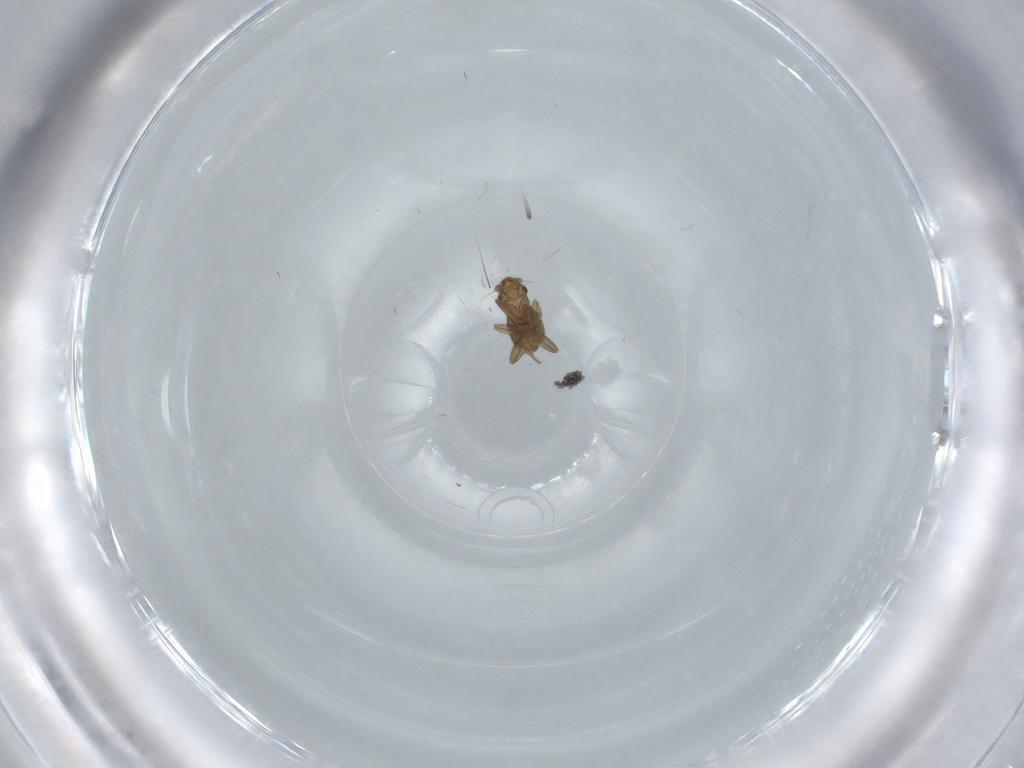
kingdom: Animalia
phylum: Arthropoda
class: Insecta
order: Diptera
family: Phoridae
